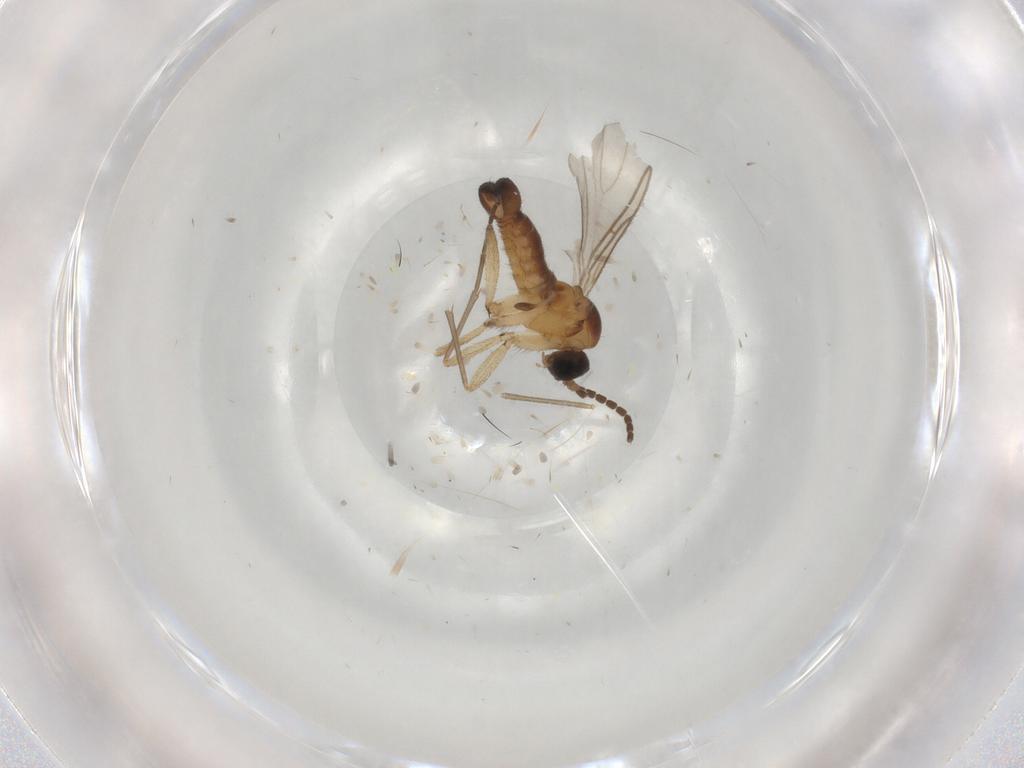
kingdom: Animalia
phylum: Arthropoda
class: Insecta
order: Diptera
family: Sciaridae
